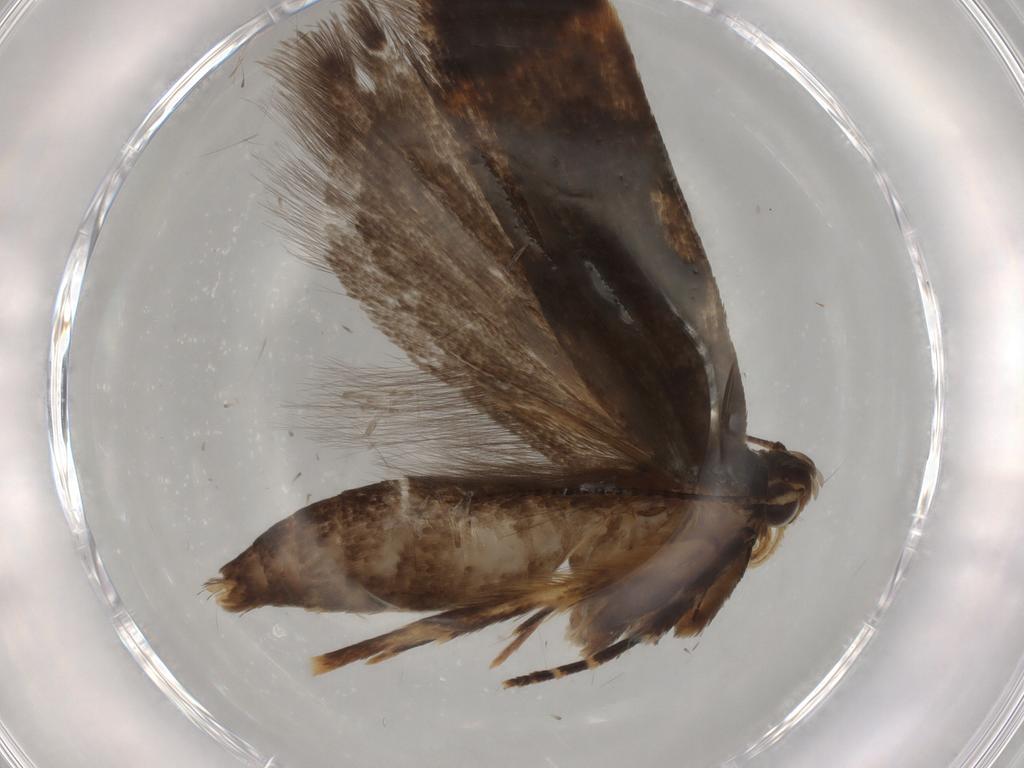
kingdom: Animalia
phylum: Arthropoda
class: Insecta
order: Lepidoptera
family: Gelechiidae
